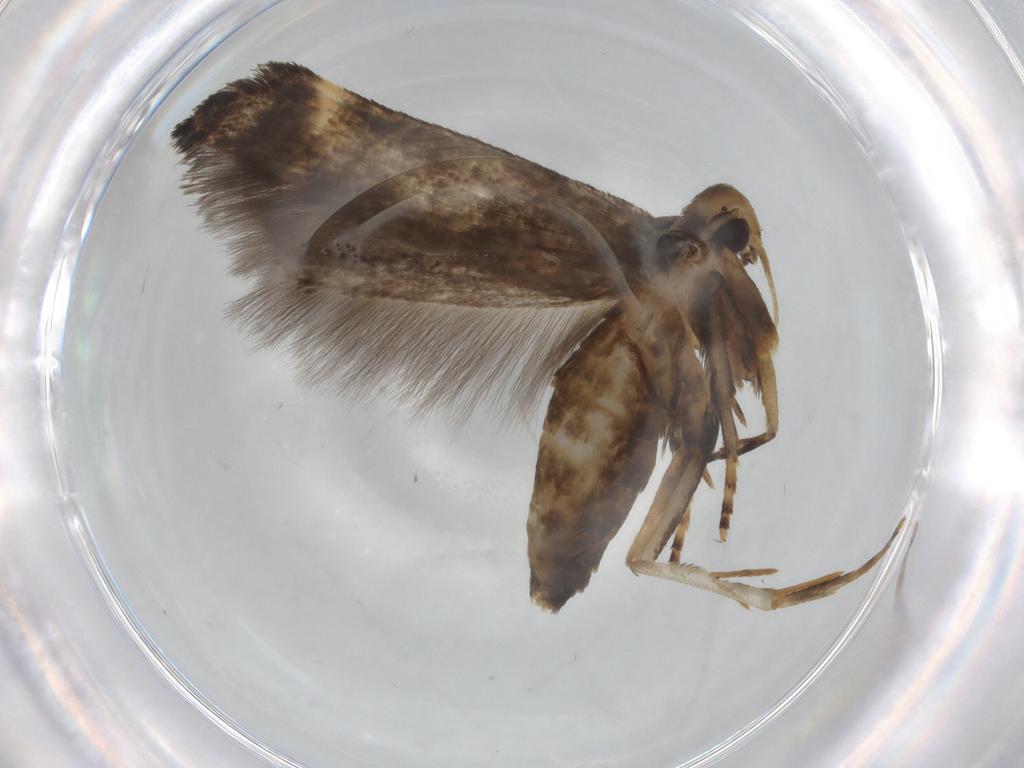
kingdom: Animalia
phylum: Arthropoda
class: Insecta
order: Lepidoptera
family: Cosmopterigidae
